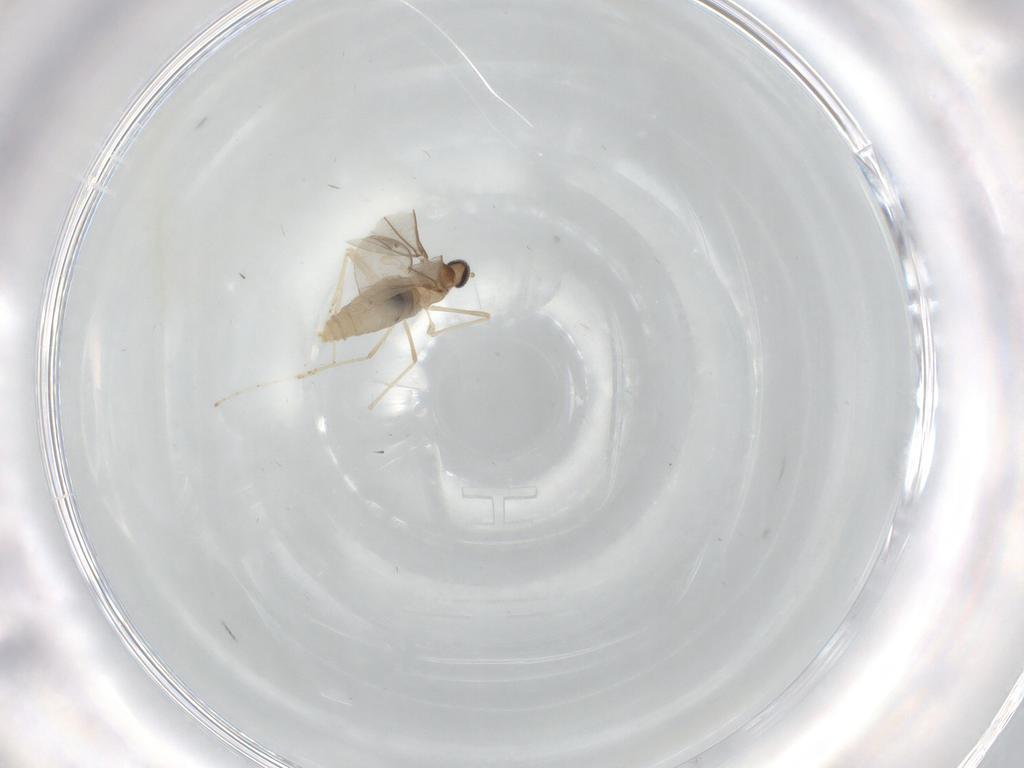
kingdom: Animalia
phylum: Arthropoda
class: Insecta
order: Diptera
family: Cecidomyiidae
